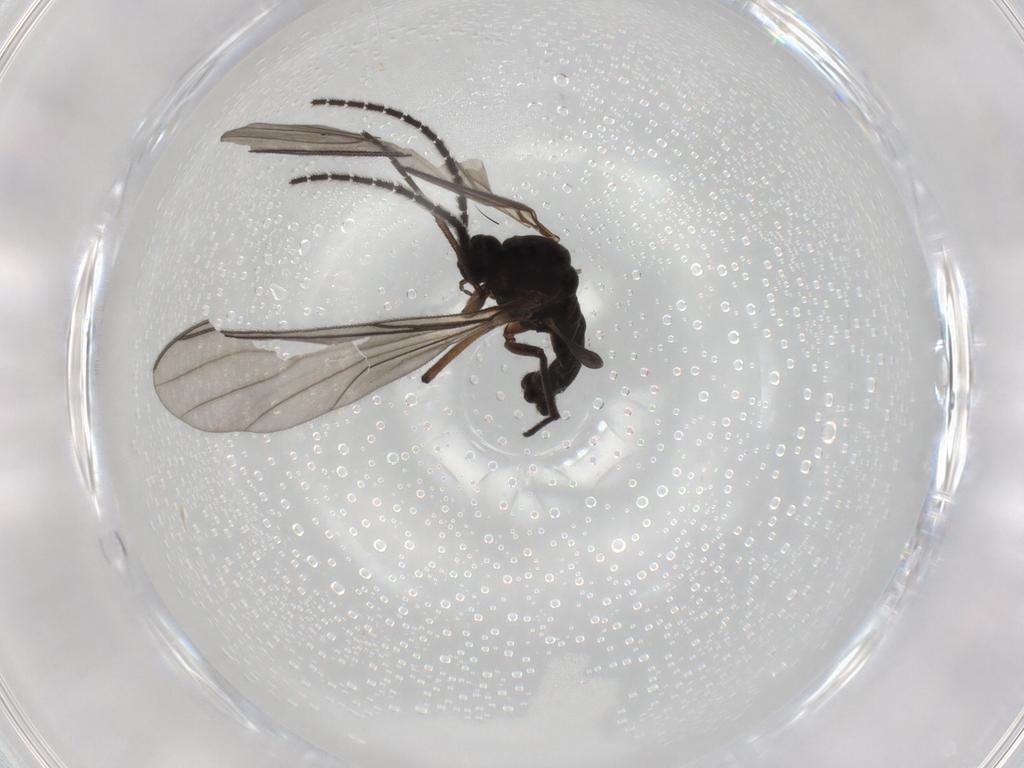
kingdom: Animalia
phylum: Arthropoda
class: Insecta
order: Diptera
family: Sciaridae
